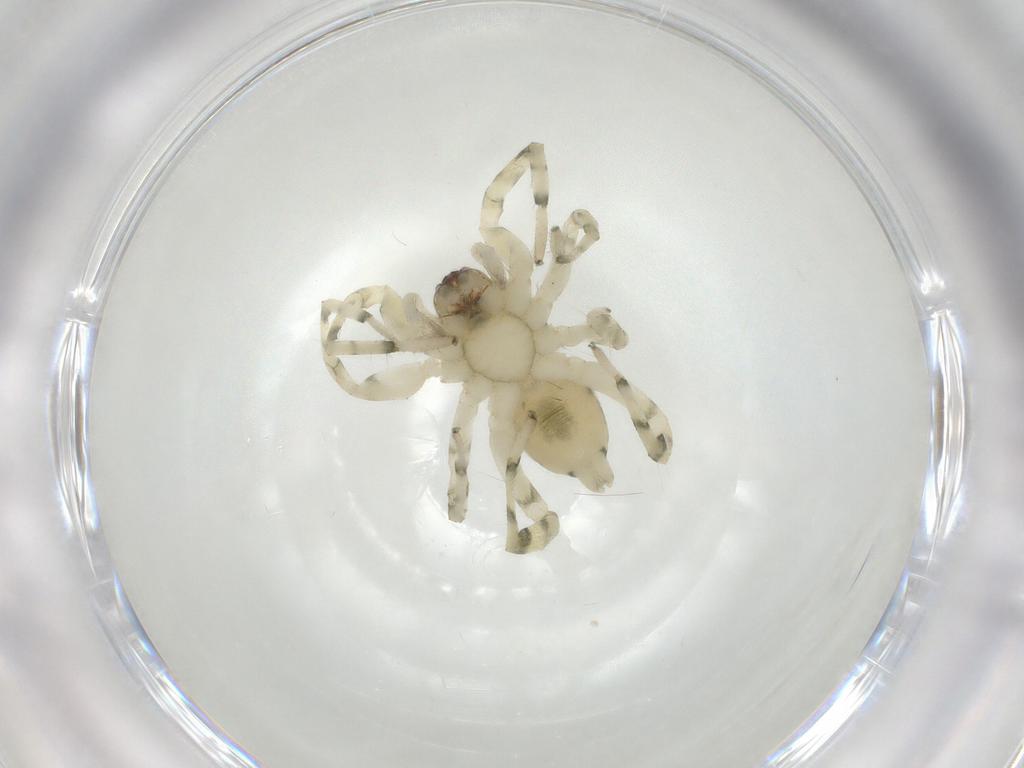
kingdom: Animalia
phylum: Arthropoda
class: Arachnida
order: Araneae
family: Trachelidae
